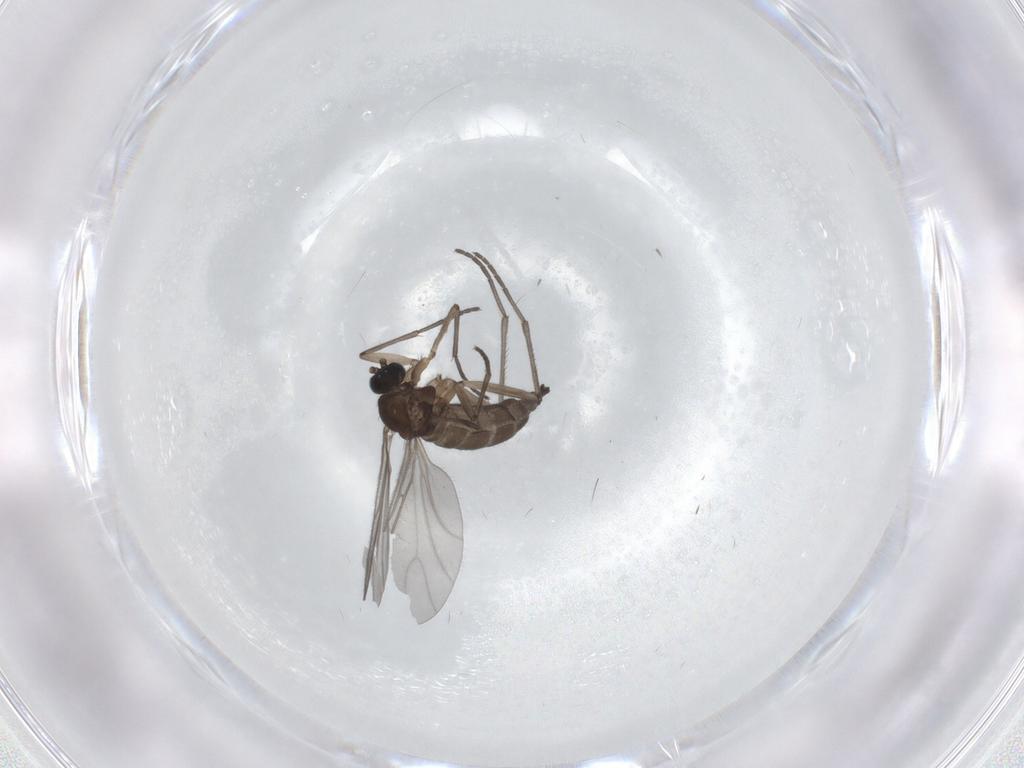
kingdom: Animalia
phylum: Arthropoda
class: Insecta
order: Diptera
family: Sciaridae
